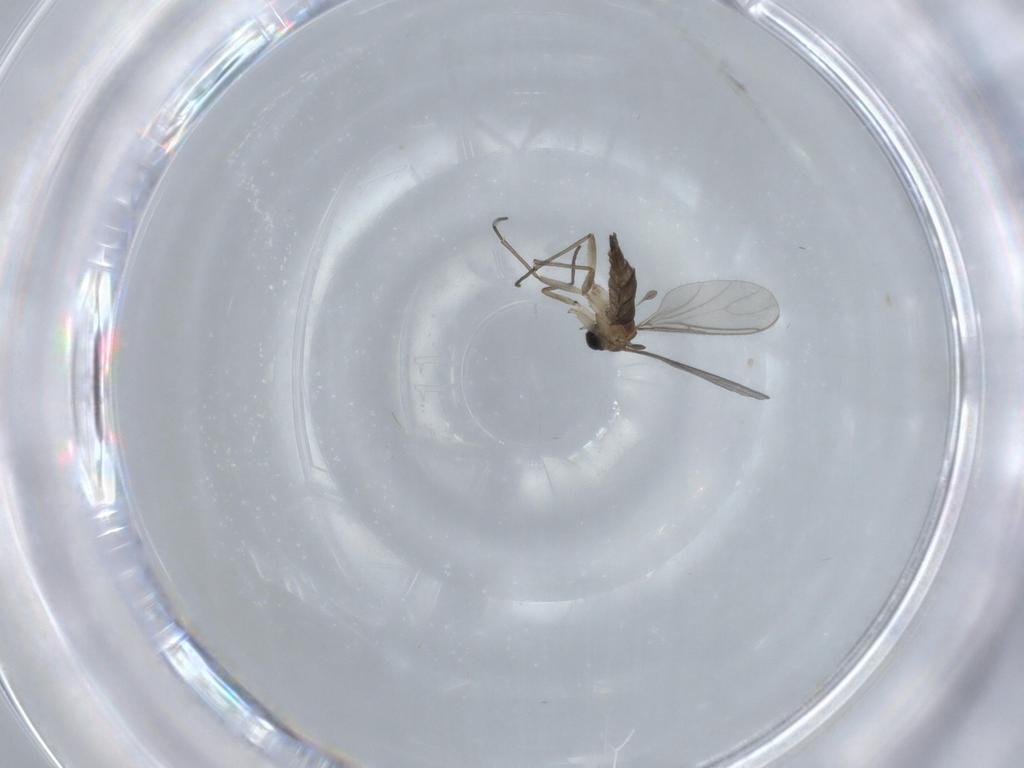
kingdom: Animalia
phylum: Arthropoda
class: Insecta
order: Diptera
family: Sciaridae
